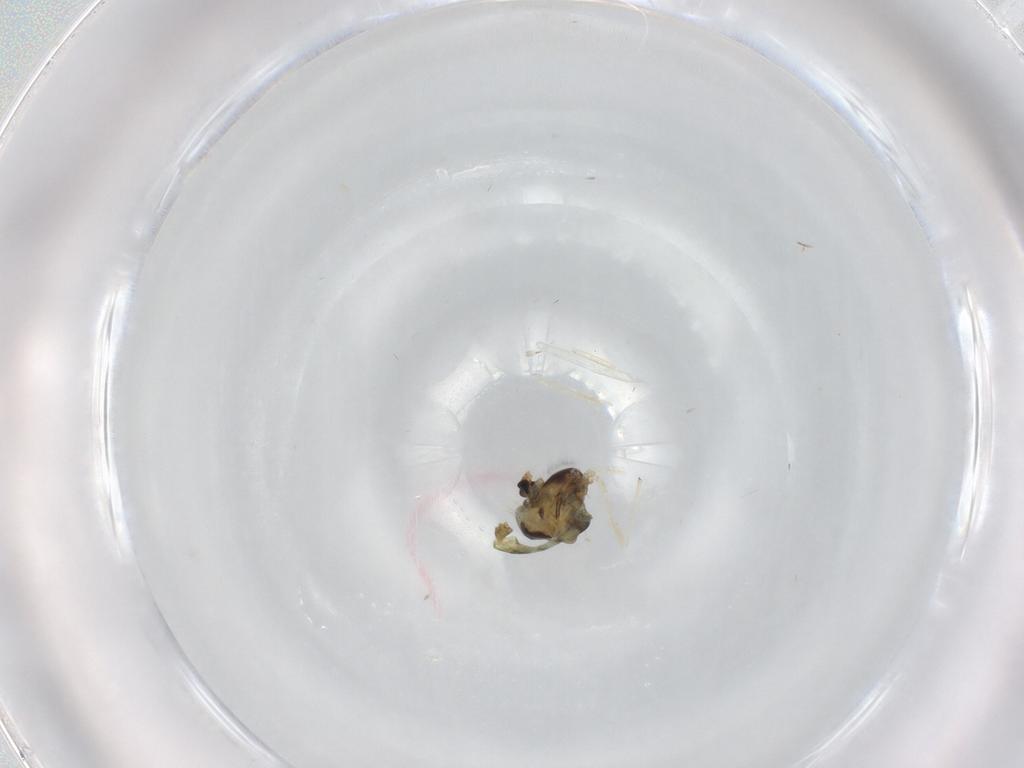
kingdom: Animalia
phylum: Arthropoda
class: Insecta
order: Diptera
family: Chironomidae
